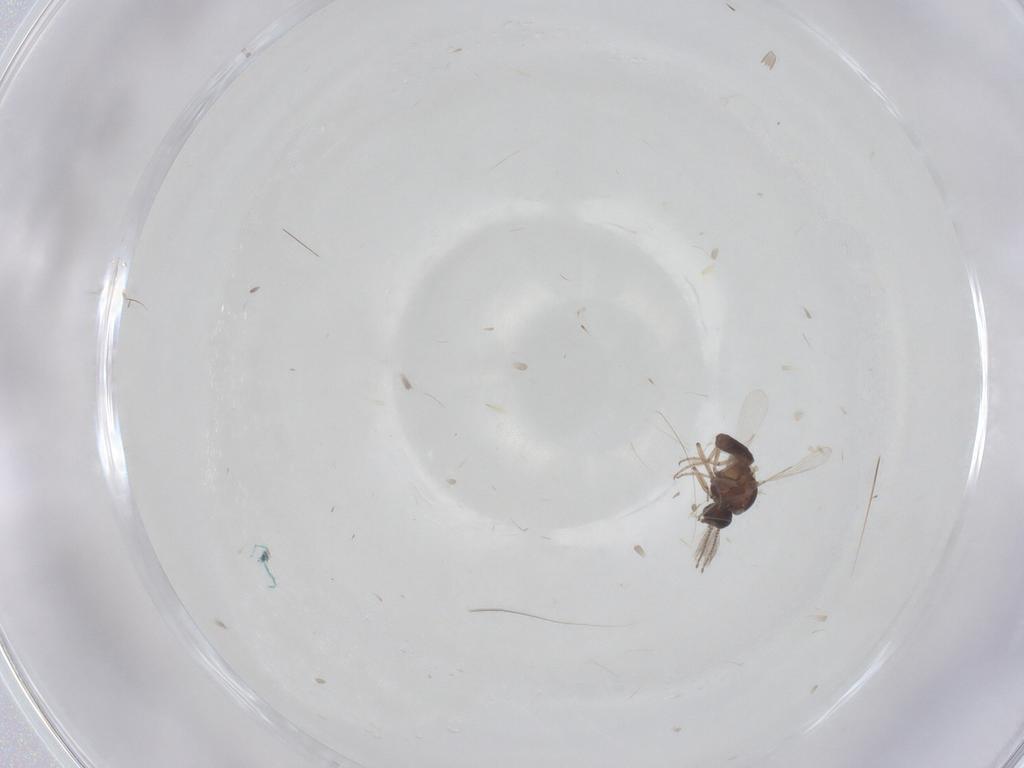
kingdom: Animalia
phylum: Arthropoda
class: Insecta
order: Diptera
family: Ceratopogonidae
